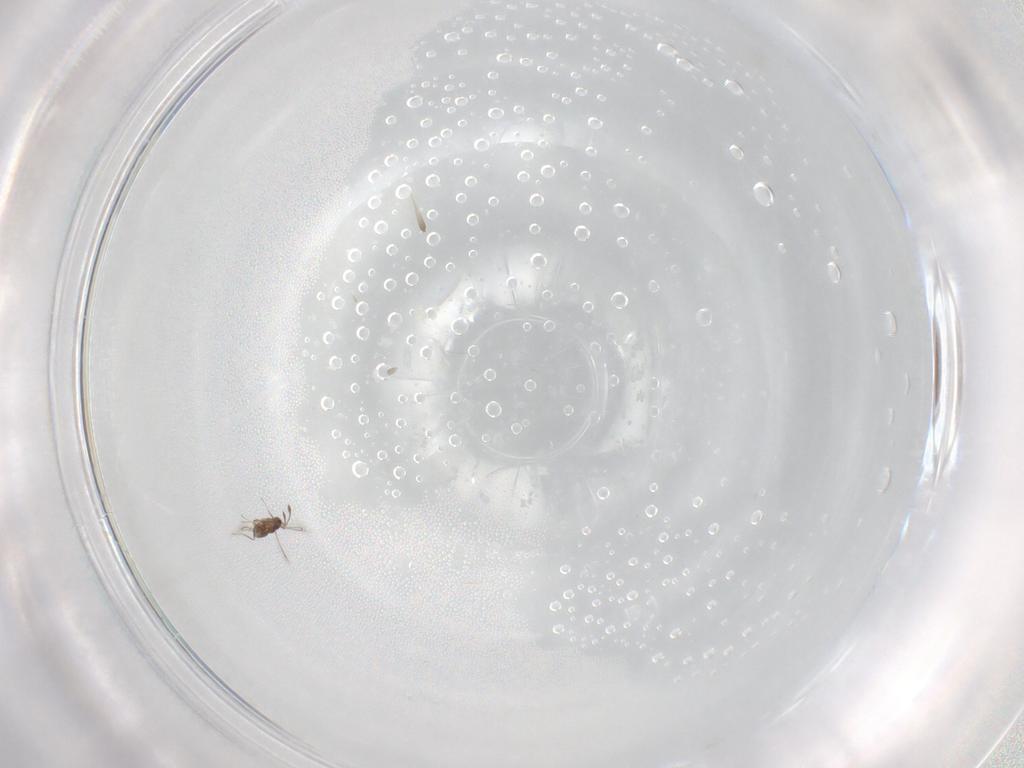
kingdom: Animalia
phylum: Arthropoda
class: Insecta
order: Hymenoptera
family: Mymaridae
